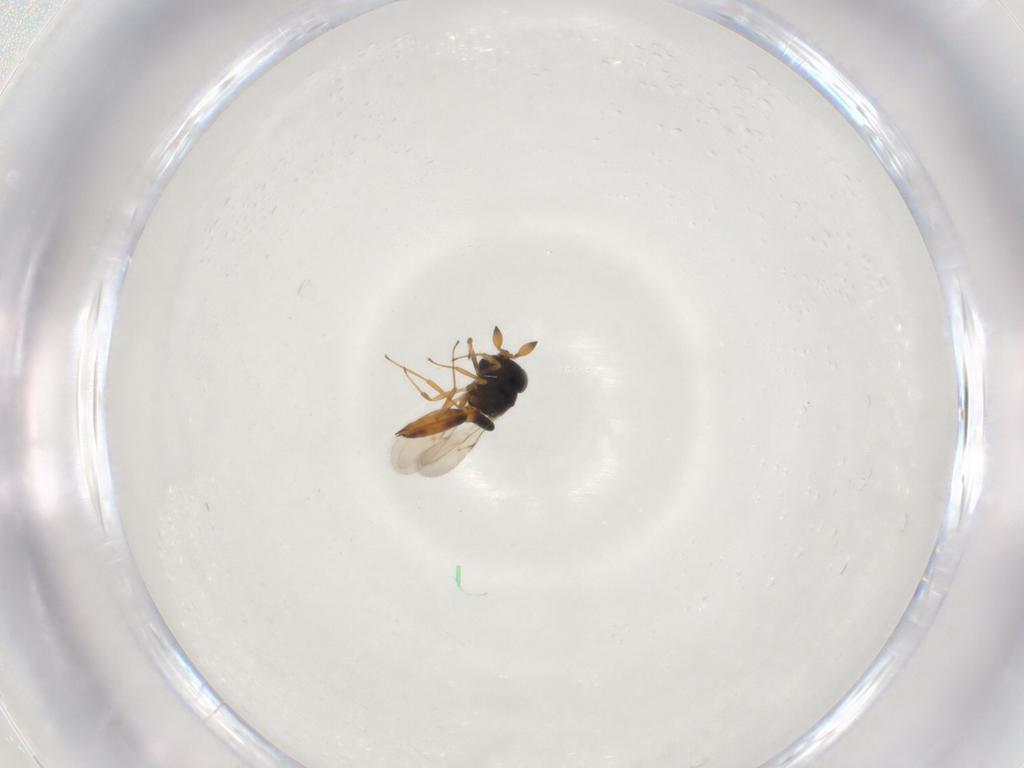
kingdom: Animalia
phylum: Arthropoda
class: Insecta
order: Hymenoptera
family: Scelionidae
